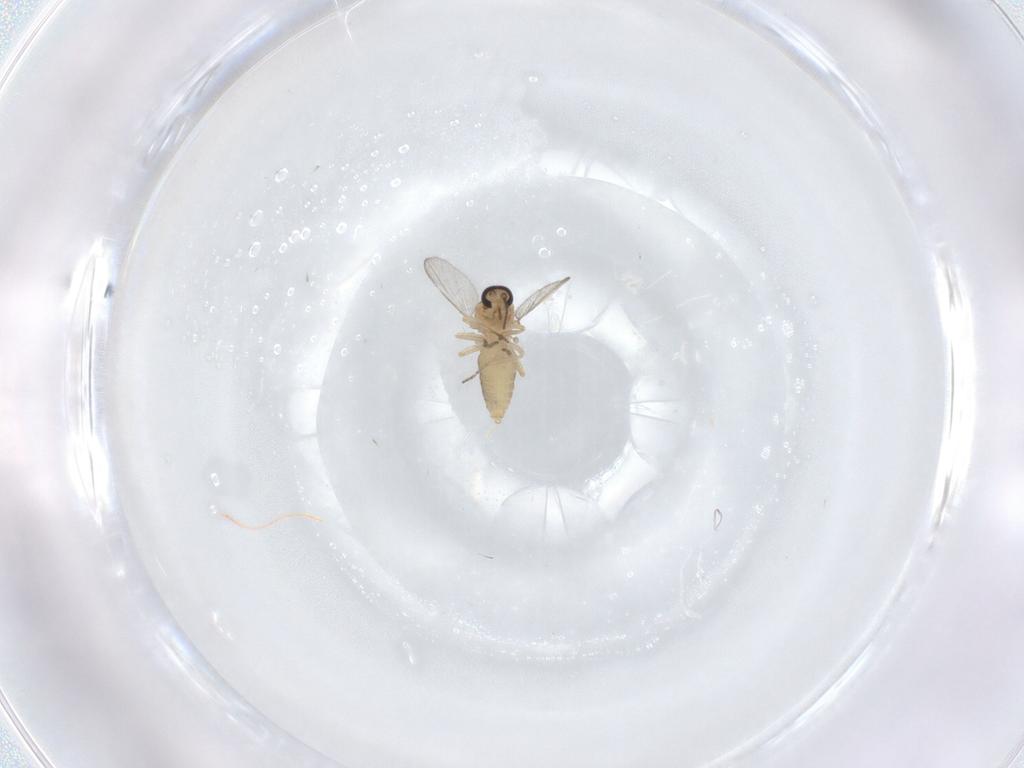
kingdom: Animalia
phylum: Arthropoda
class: Insecta
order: Diptera
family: Ceratopogonidae
